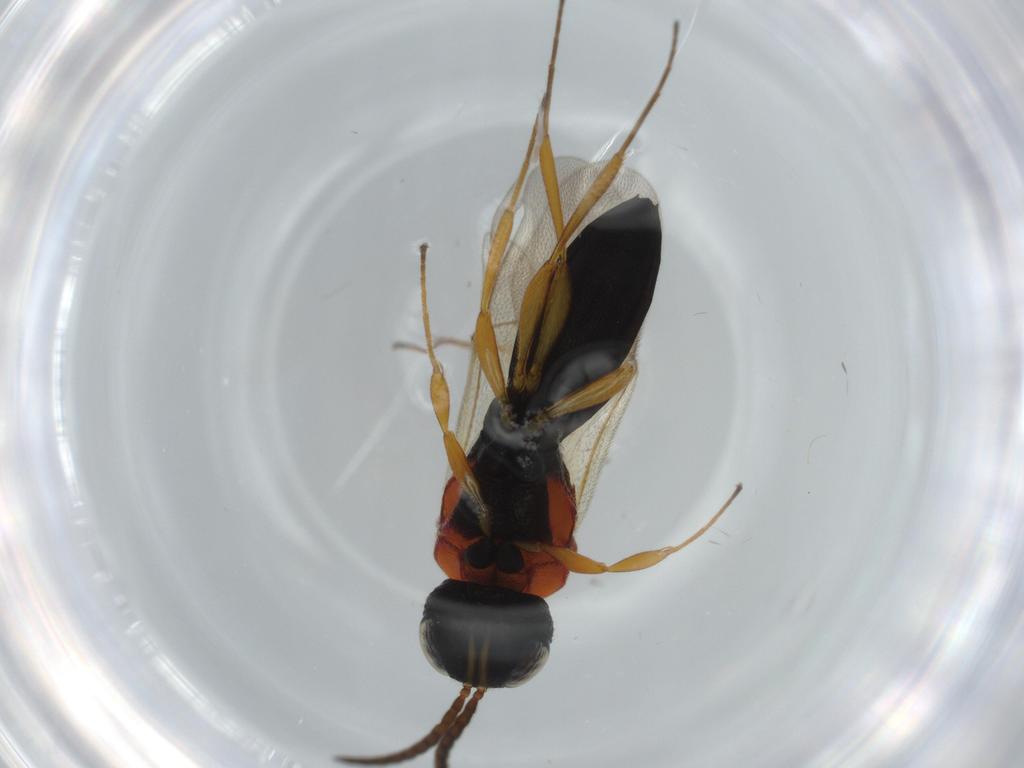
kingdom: Animalia
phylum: Arthropoda
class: Insecta
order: Hymenoptera
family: Scelionidae
